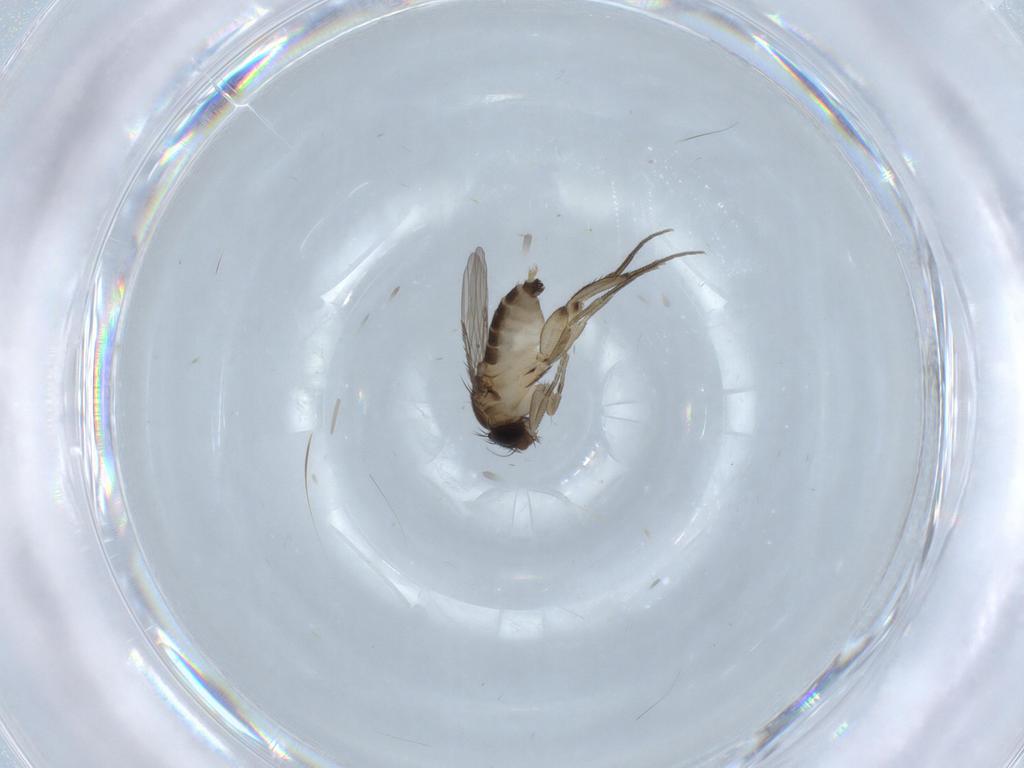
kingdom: Animalia
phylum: Arthropoda
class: Insecta
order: Diptera
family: Phoridae
